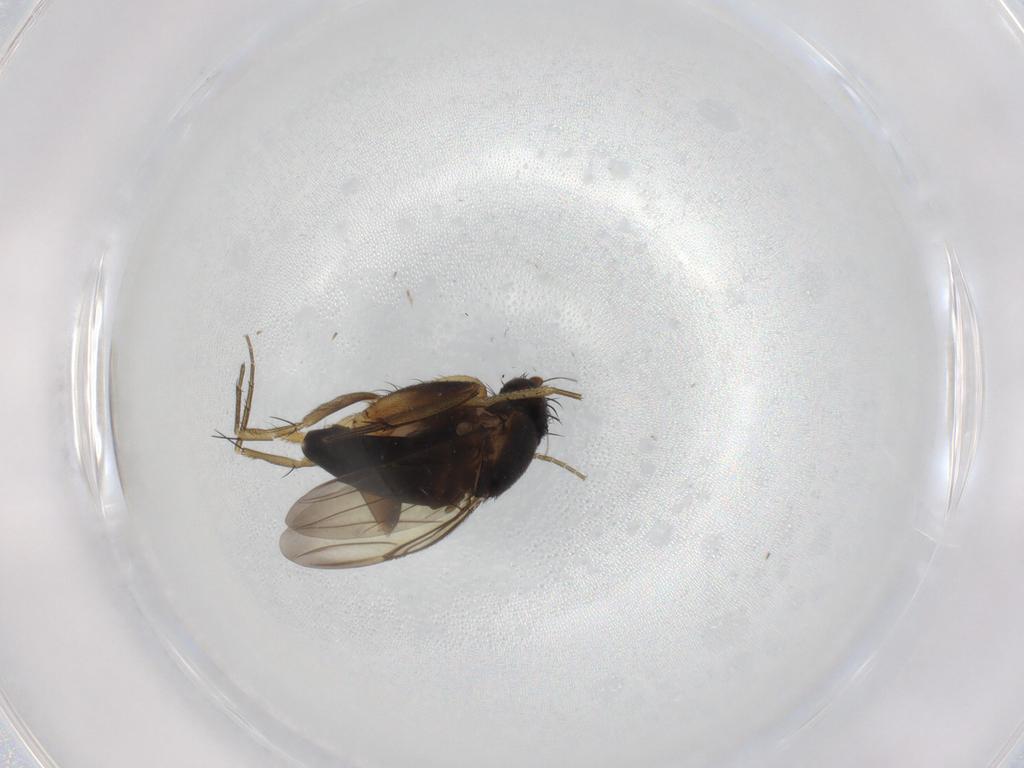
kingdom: Animalia
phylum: Arthropoda
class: Insecta
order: Diptera
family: Phoridae
